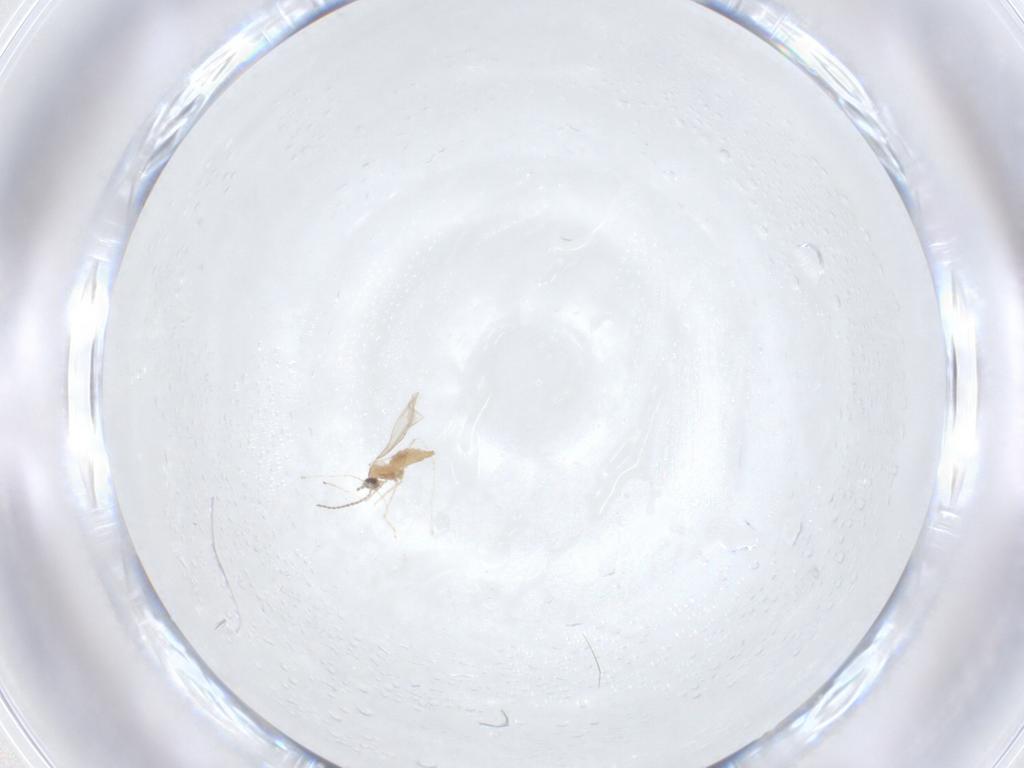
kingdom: Animalia
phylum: Arthropoda
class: Insecta
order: Diptera
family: Cecidomyiidae
